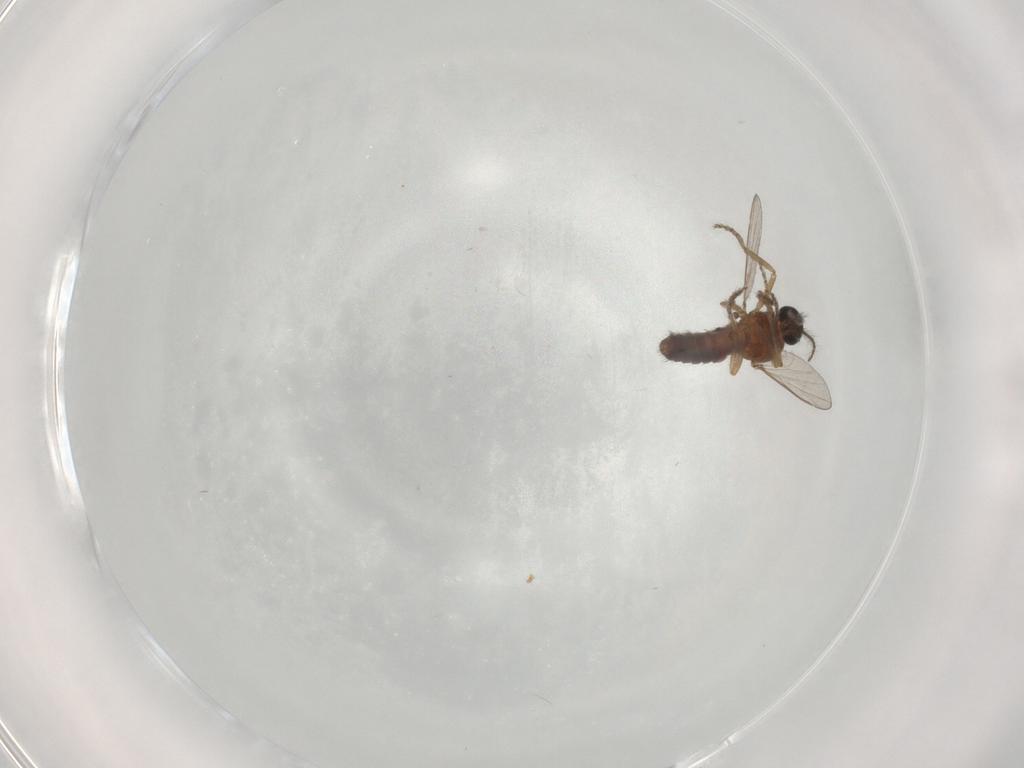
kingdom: Animalia
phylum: Arthropoda
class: Insecta
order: Diptera
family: Ceratopogonidae
